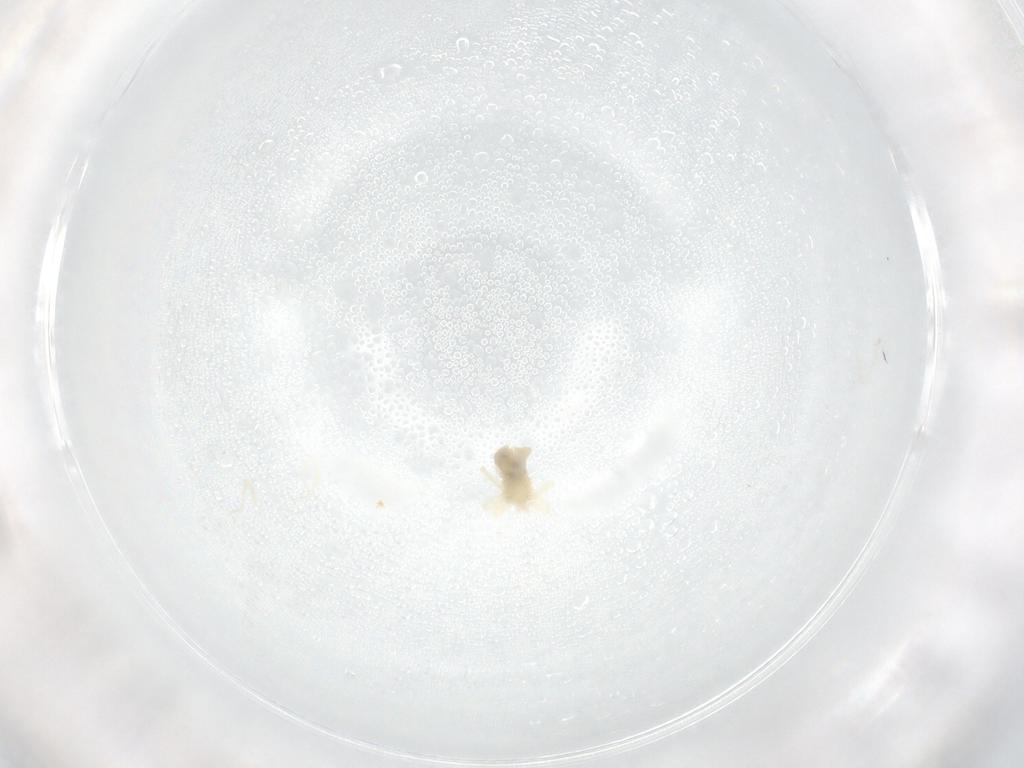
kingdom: Animalia
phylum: Arthropoda
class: Arachnida
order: Trombidiformes
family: Anystidae
